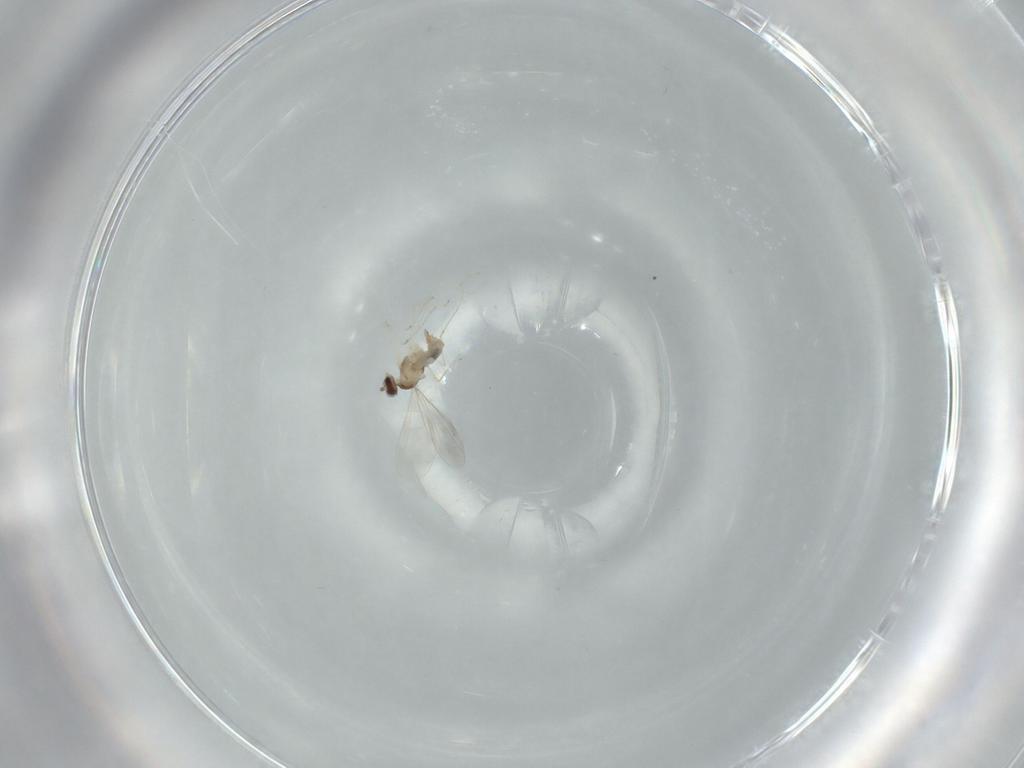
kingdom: Animalia
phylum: Arthropoda
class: Insecta
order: Diptera
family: Cecidomyiidae
